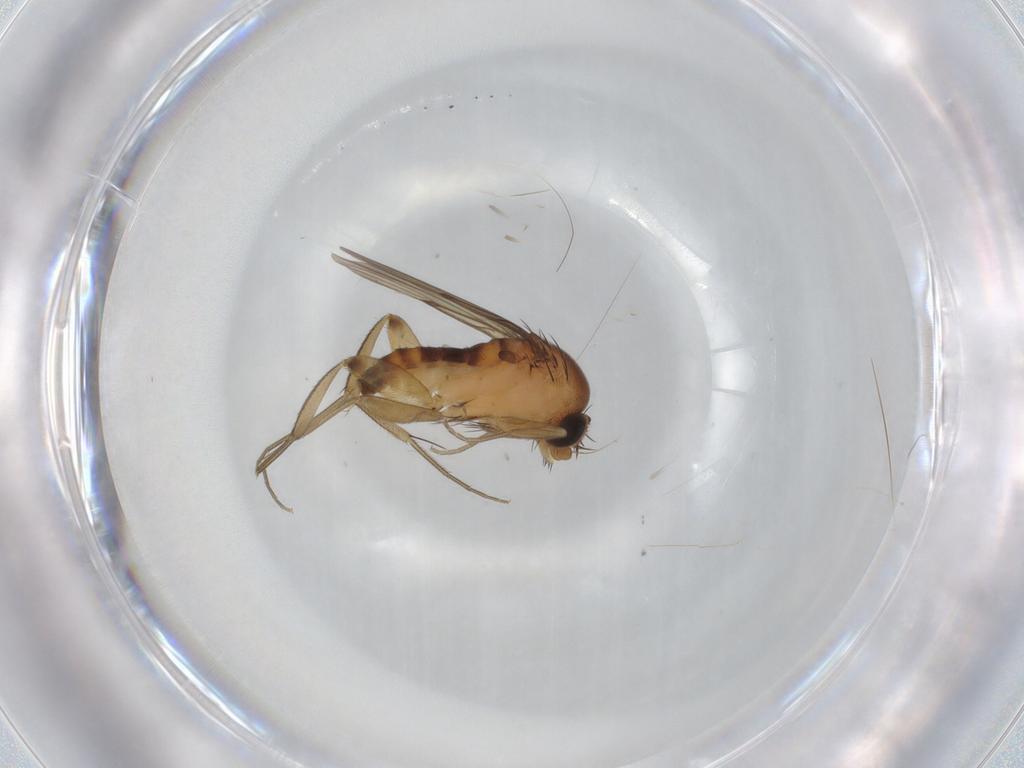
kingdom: Animalia
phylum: Arthropoda
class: Insecta
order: Diptera
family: Phoridae
